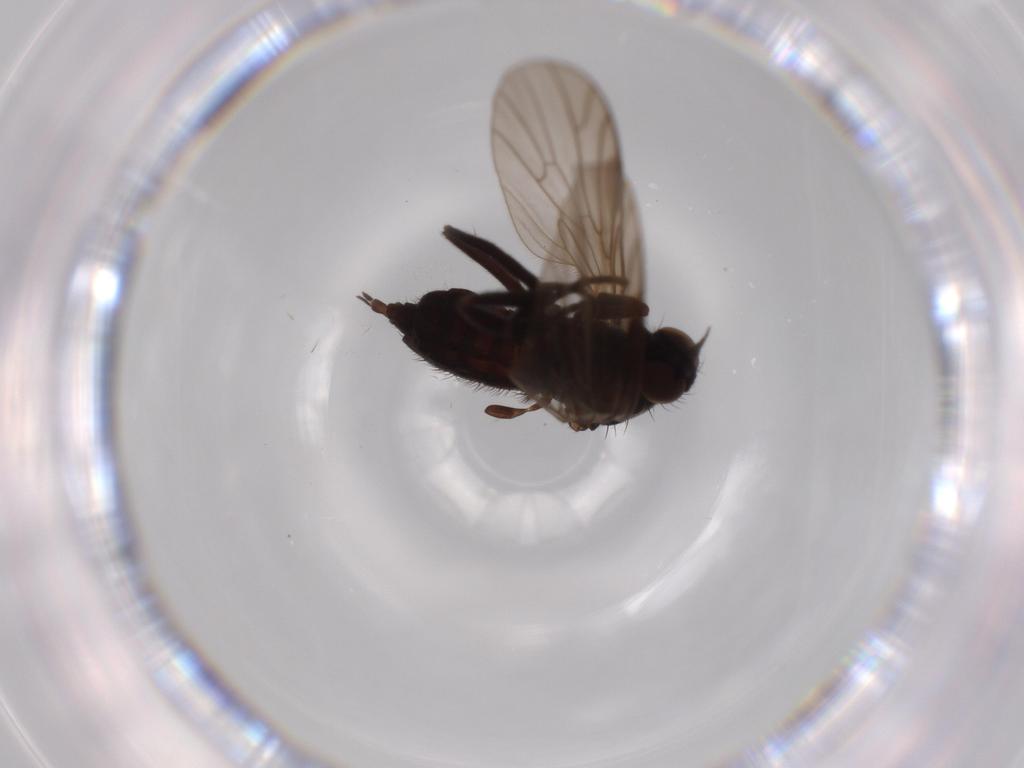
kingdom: Animalia
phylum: Arthropoda
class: Insecta
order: Diptera
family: Empididae
